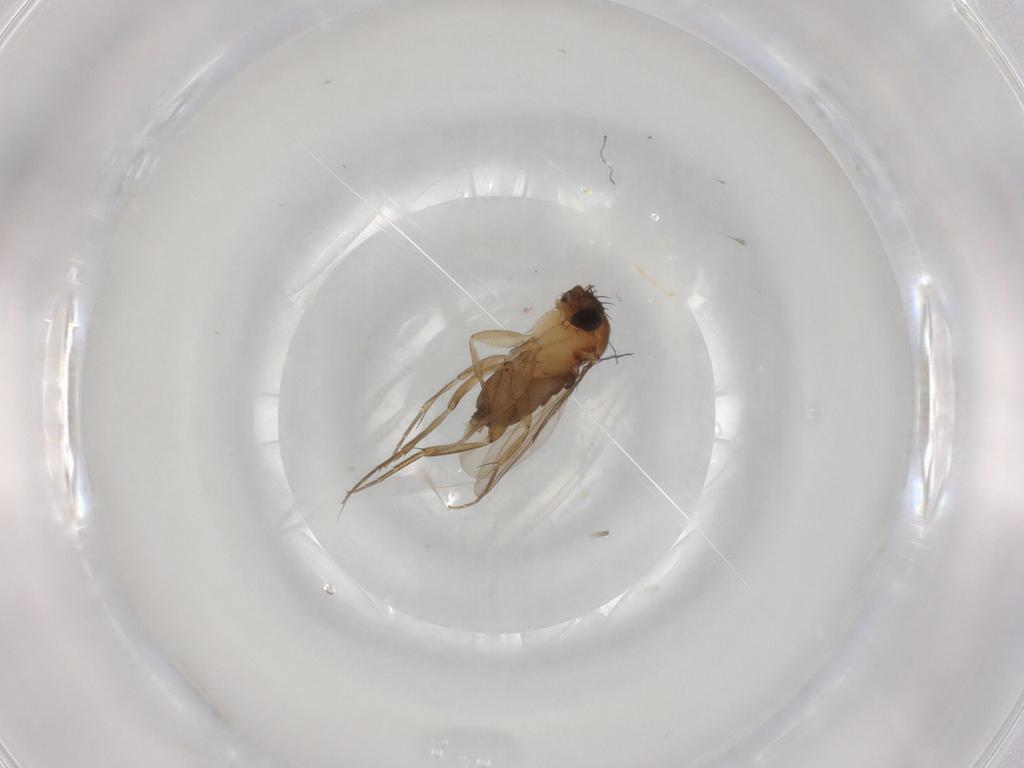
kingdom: Animalia
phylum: Arthropoda
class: Insecta
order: Diptera
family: Phoridae
